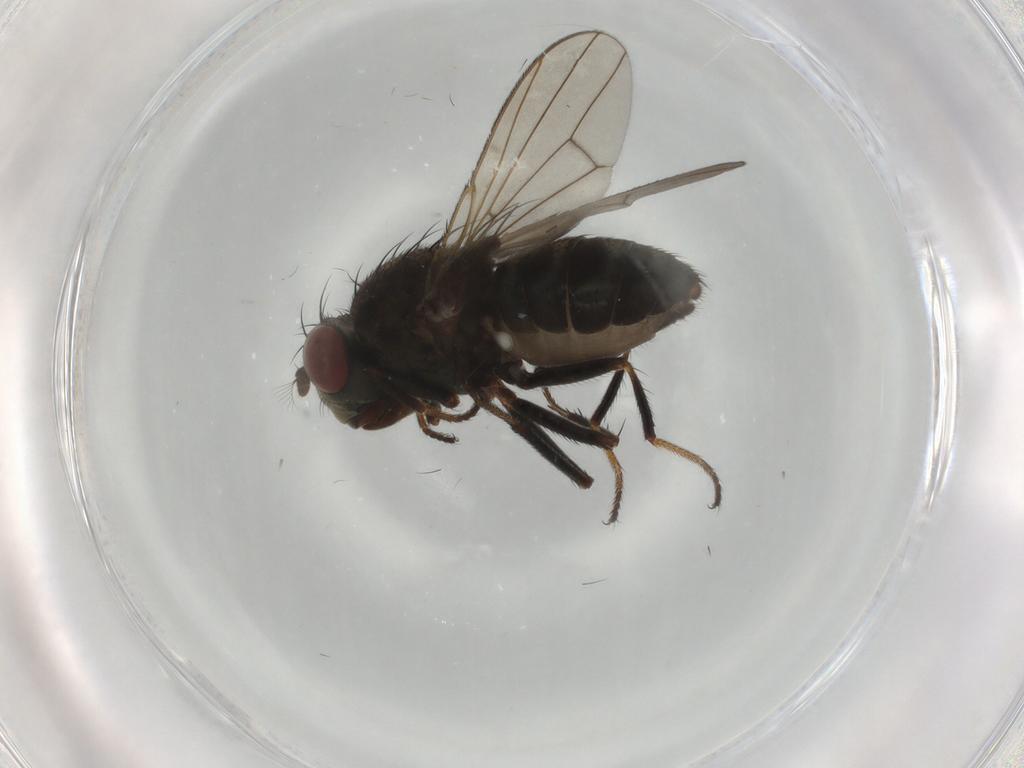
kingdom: Animalia
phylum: Arthropoda
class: Insecta
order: Diptera
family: Ephydridae
